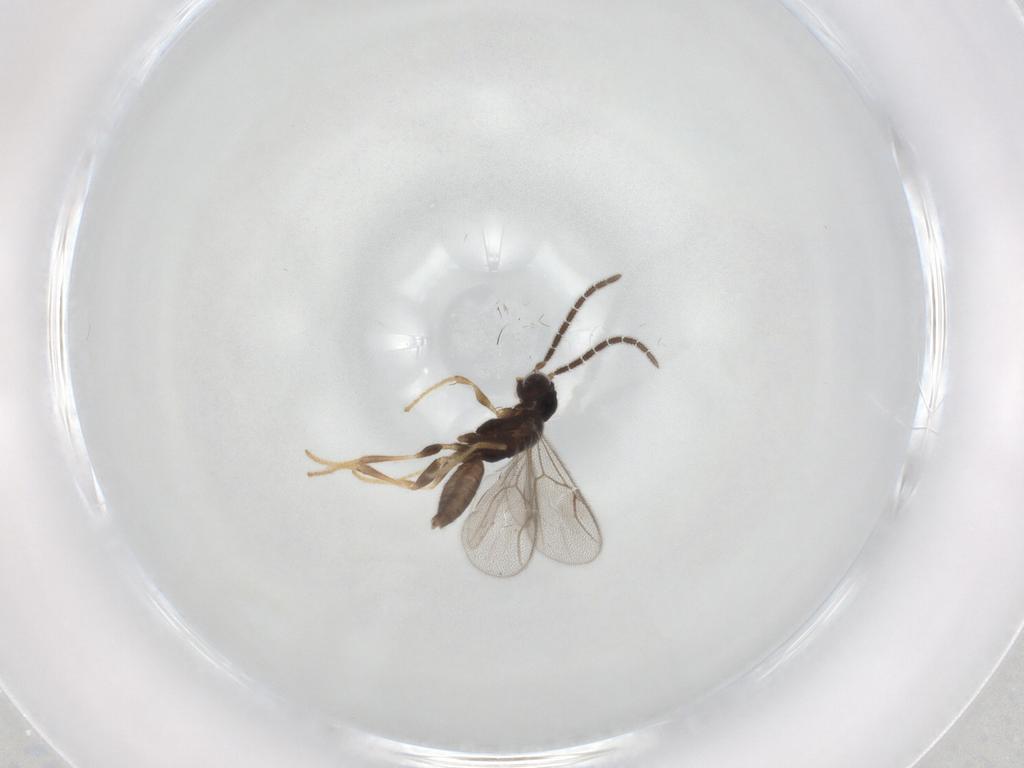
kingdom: Animalia
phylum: Arthropoda
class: Insecta
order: Hymenoptera
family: Dryinidae
